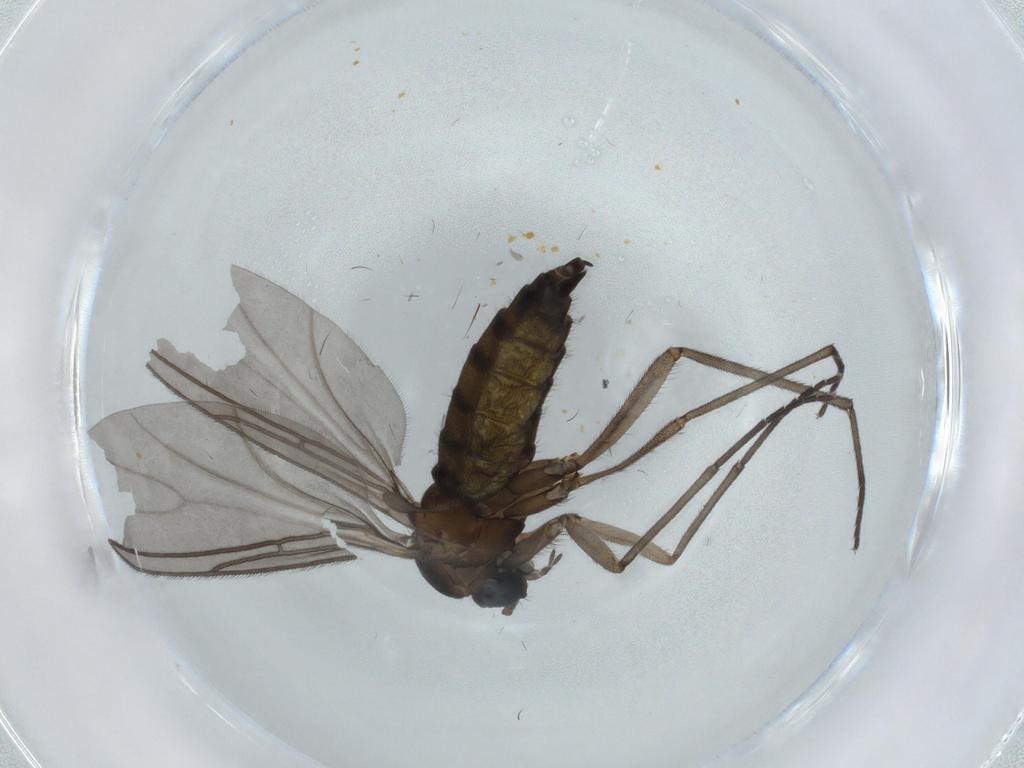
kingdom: Animalia
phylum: Arthropoda
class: Insecta
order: Diptera
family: Sciaridae
